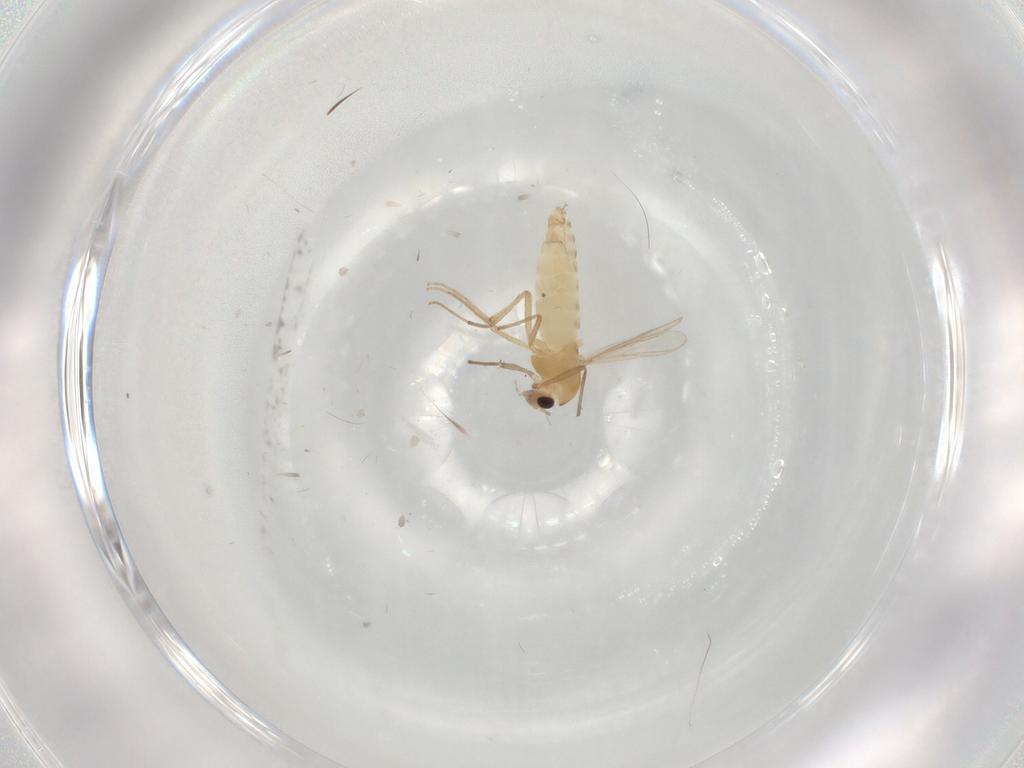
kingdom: Animalia
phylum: Arthropoda
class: Insecta
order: Diptera
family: Chironomidae
